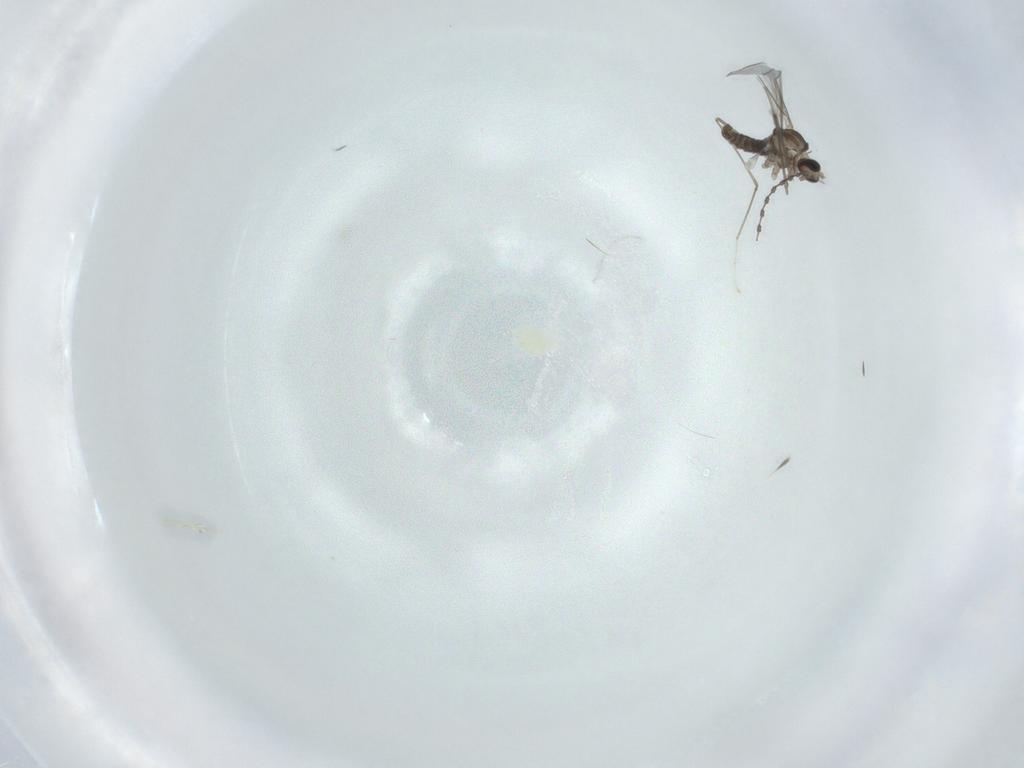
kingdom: Animalia
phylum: Arthropoda
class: Insecta
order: Diptera
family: Cecidomyiidae
